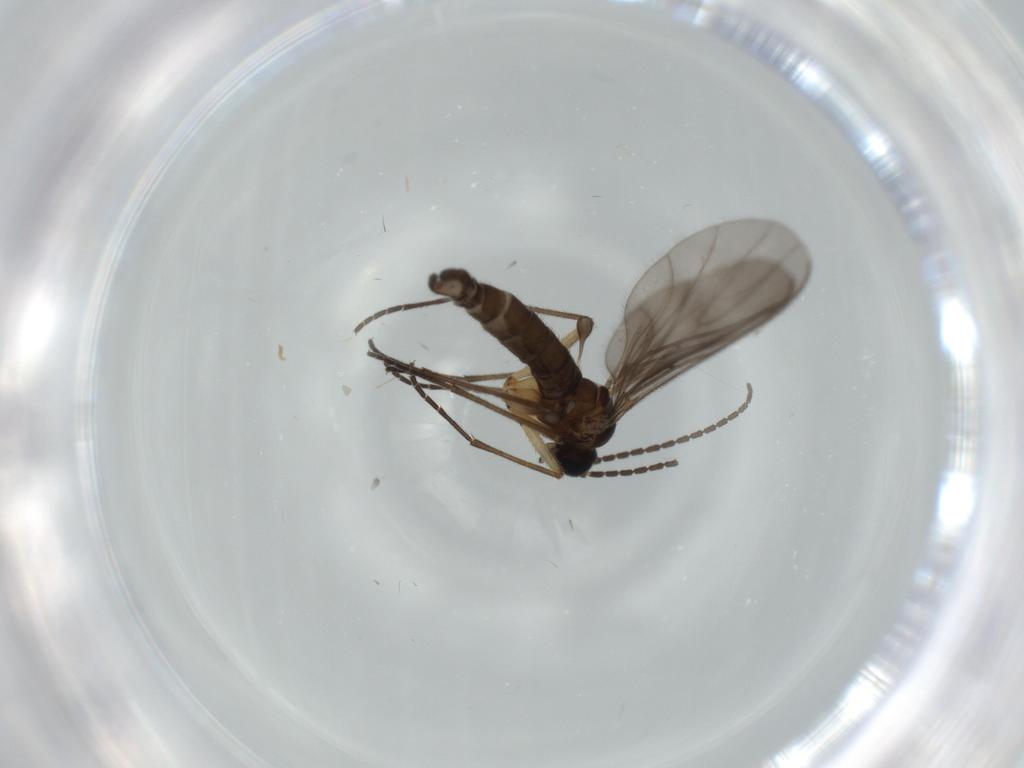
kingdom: Animalia
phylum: Arthropoda
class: Insecta
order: Diptera
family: Sciaridae
